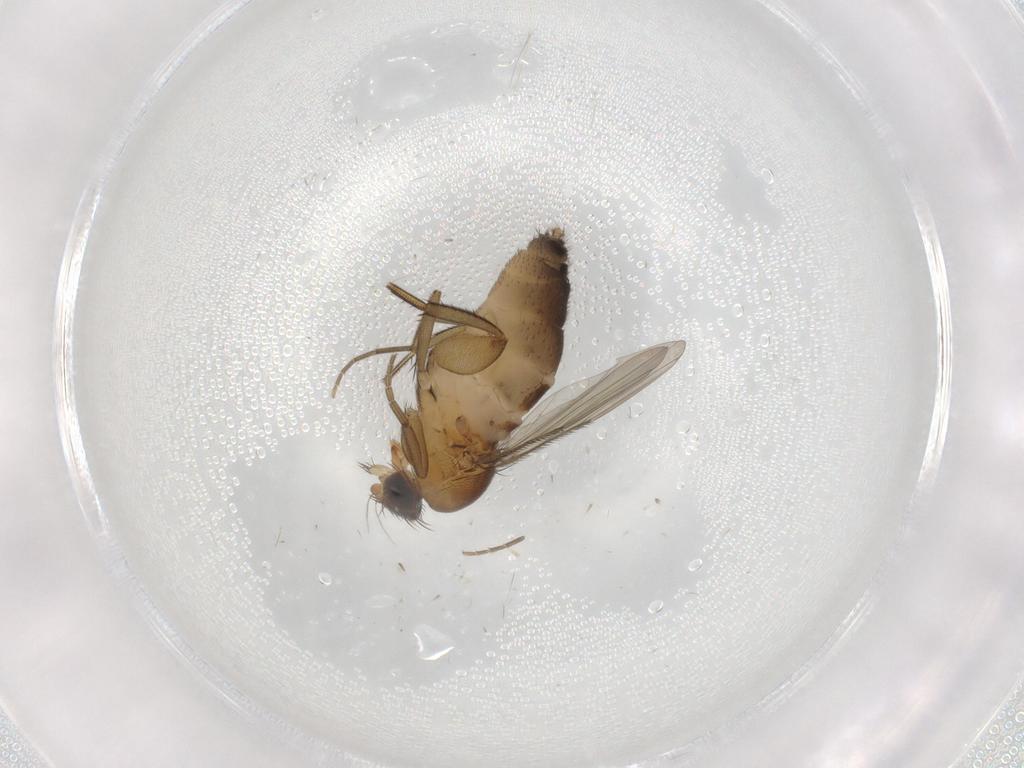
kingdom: Animalia
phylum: Arthropoda
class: Insecta
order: Diptera
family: Phoridae
